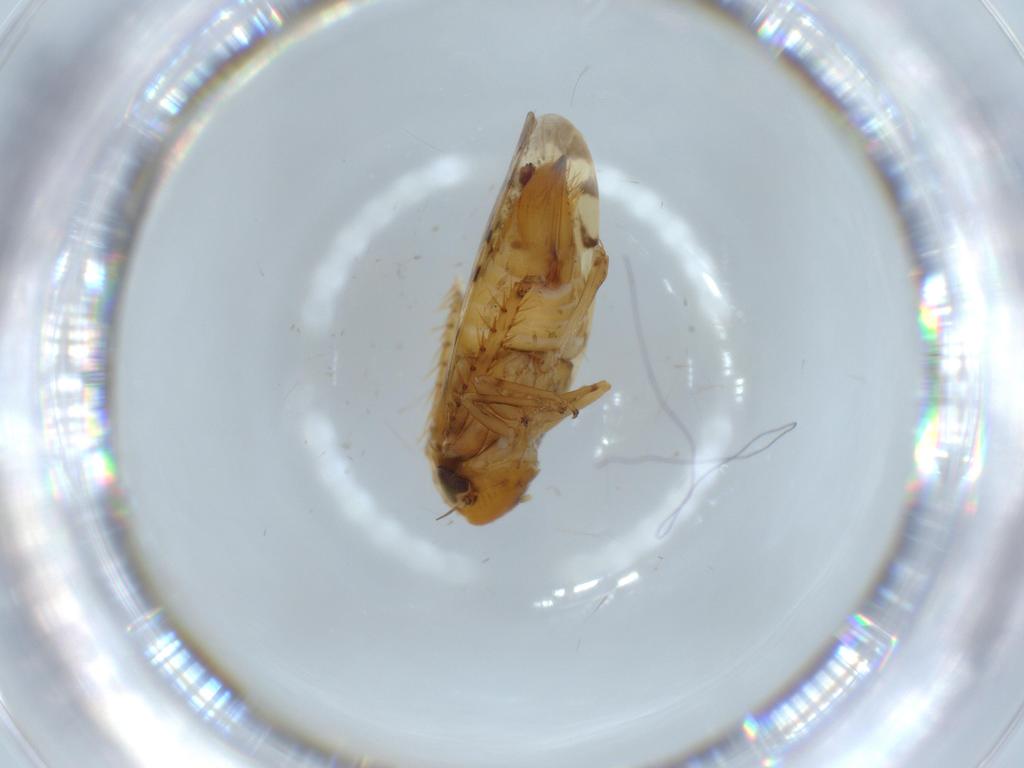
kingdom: Animalia
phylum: Arthropoda
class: Insecta
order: Hemiptera
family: Cicadellidae
